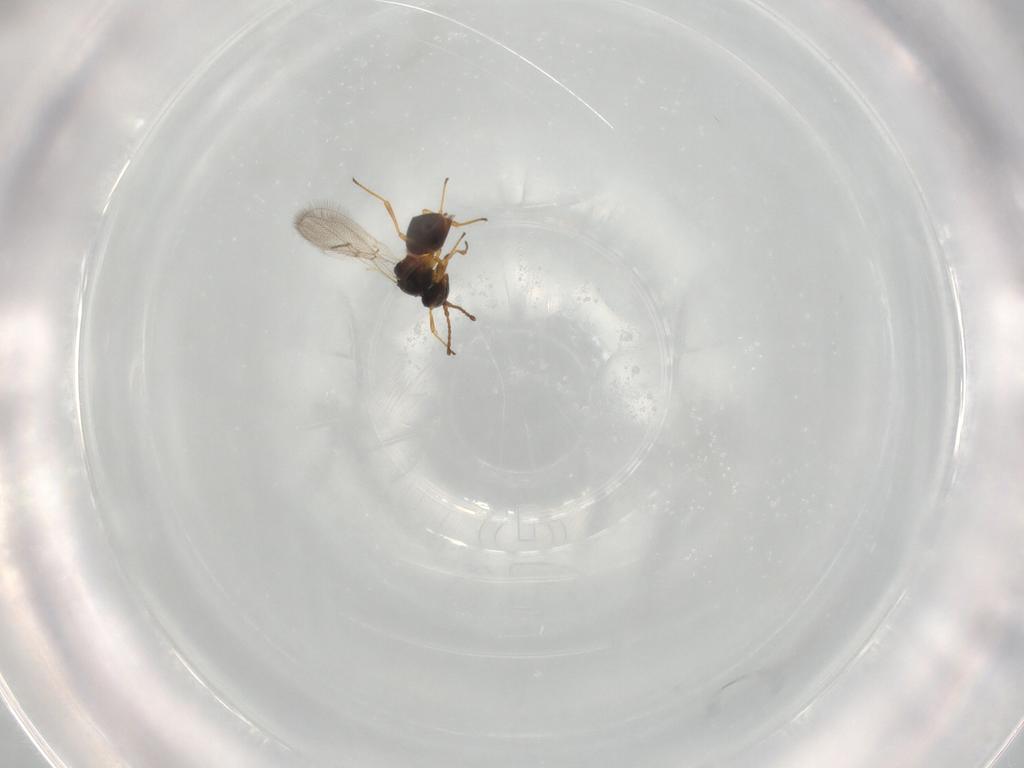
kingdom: Animalia
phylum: Arthropoda
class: Insecta
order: Hymenoptera
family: Figitidae
